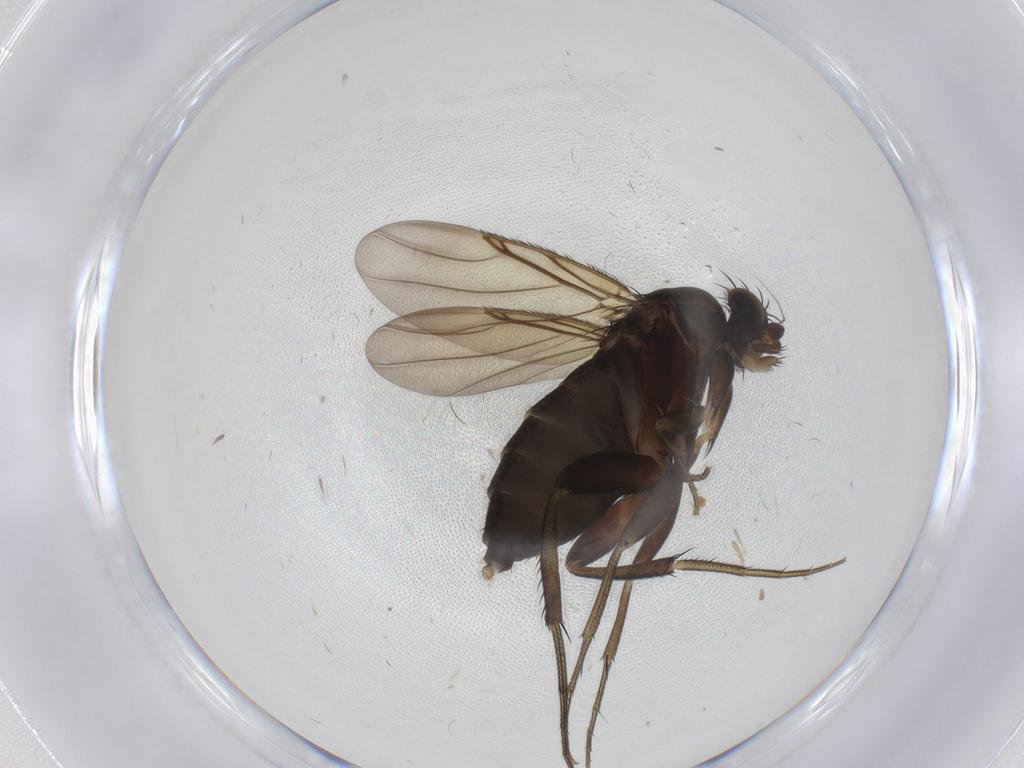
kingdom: Animalia
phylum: Arthropoda
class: Insecta
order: Diptera
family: Phoridae
